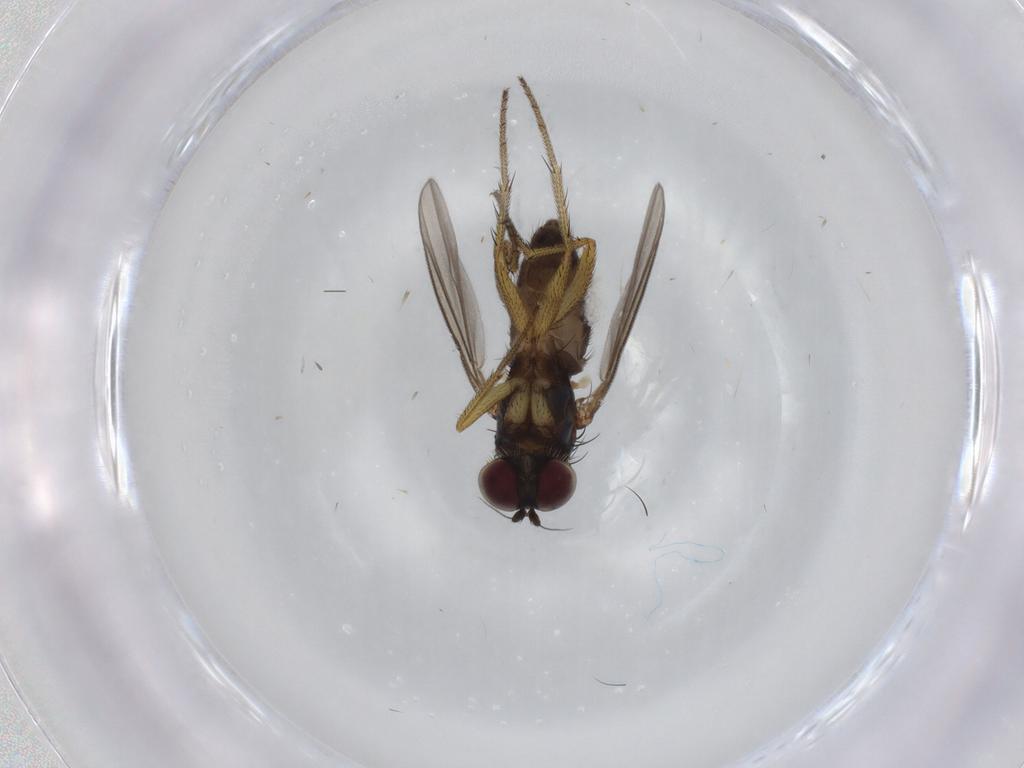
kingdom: Animalia
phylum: Arthropoda
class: Insecta
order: Diptera
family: Dolichopodidae
